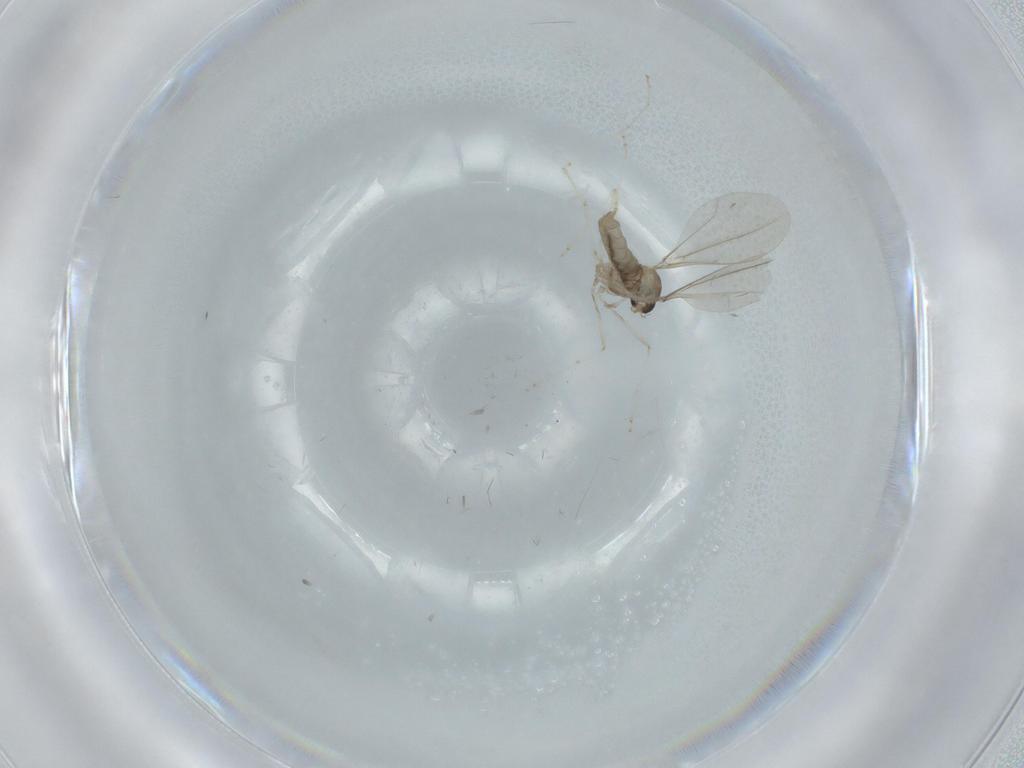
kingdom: Animalia
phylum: Arthropoda
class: Insecta
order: Diptera
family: Cecidomyiidae
